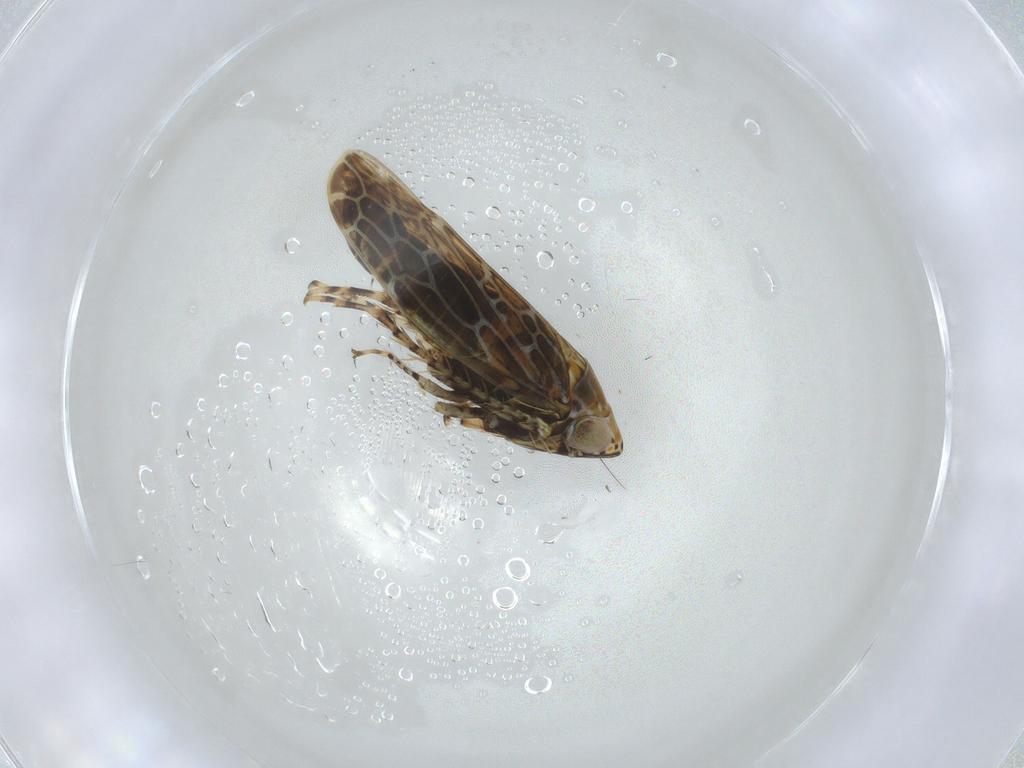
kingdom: Animalia
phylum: Arthropoda
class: Insecta
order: Hemiptera
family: Cicadellidae
